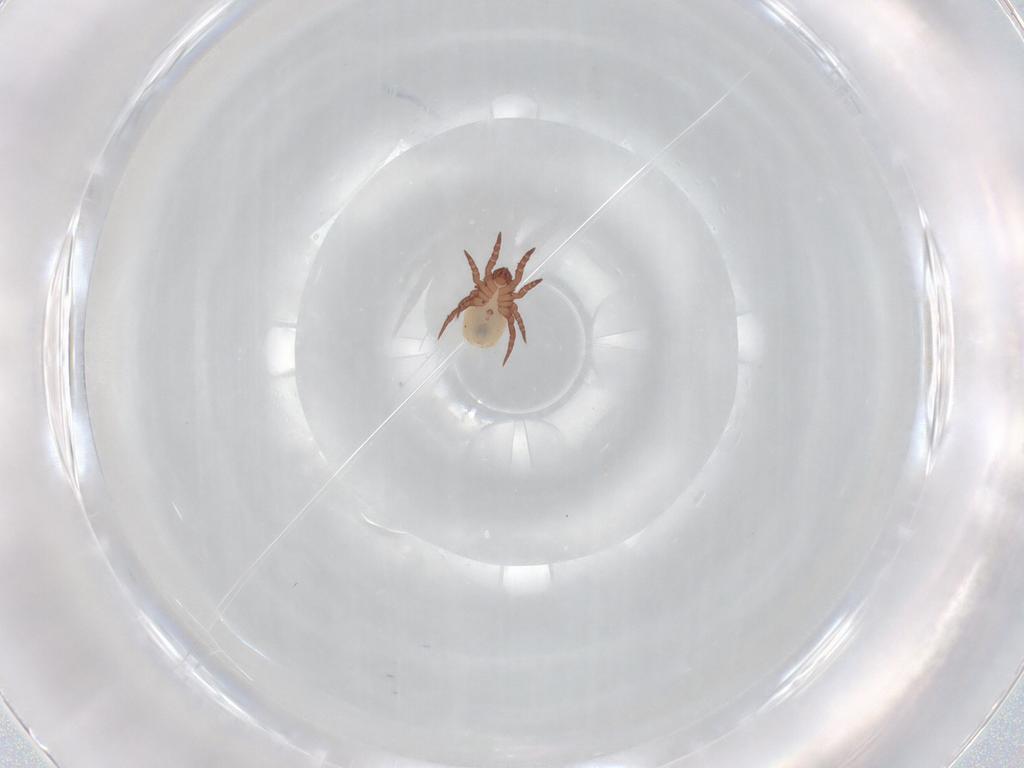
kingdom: Animalia
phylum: Arthropoda
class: Arachnida
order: Sarcoptiformes
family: Nothridae
